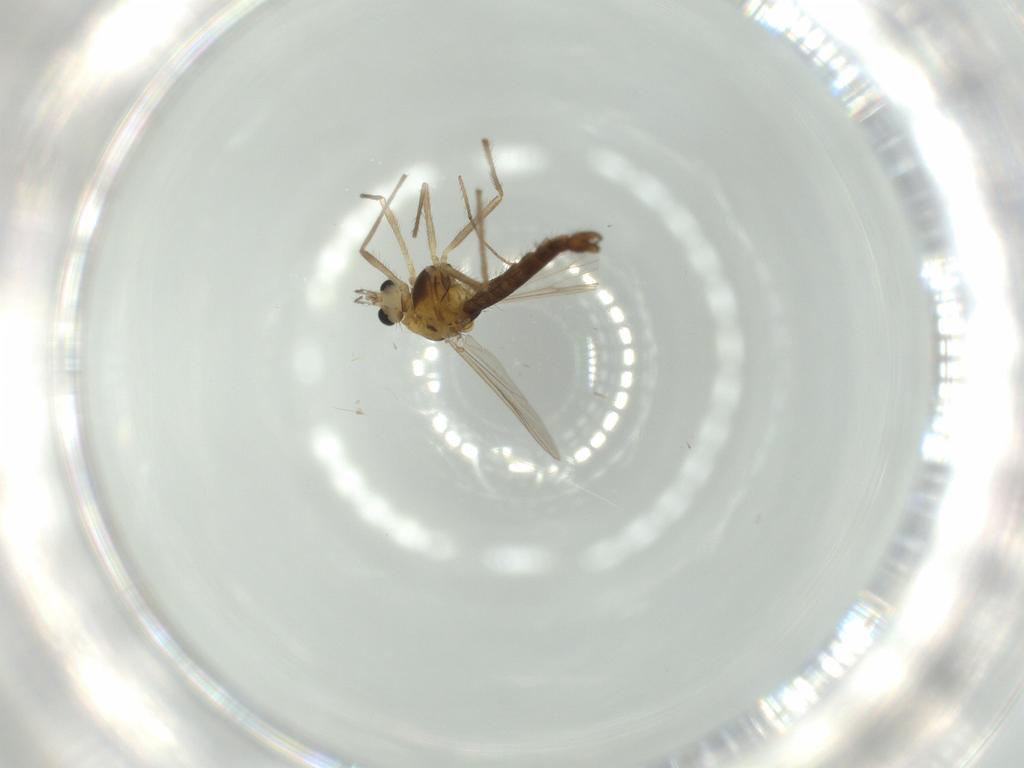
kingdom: Animalia
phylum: Arthropoda
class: Insecta
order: Diptera
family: Chironomidae
